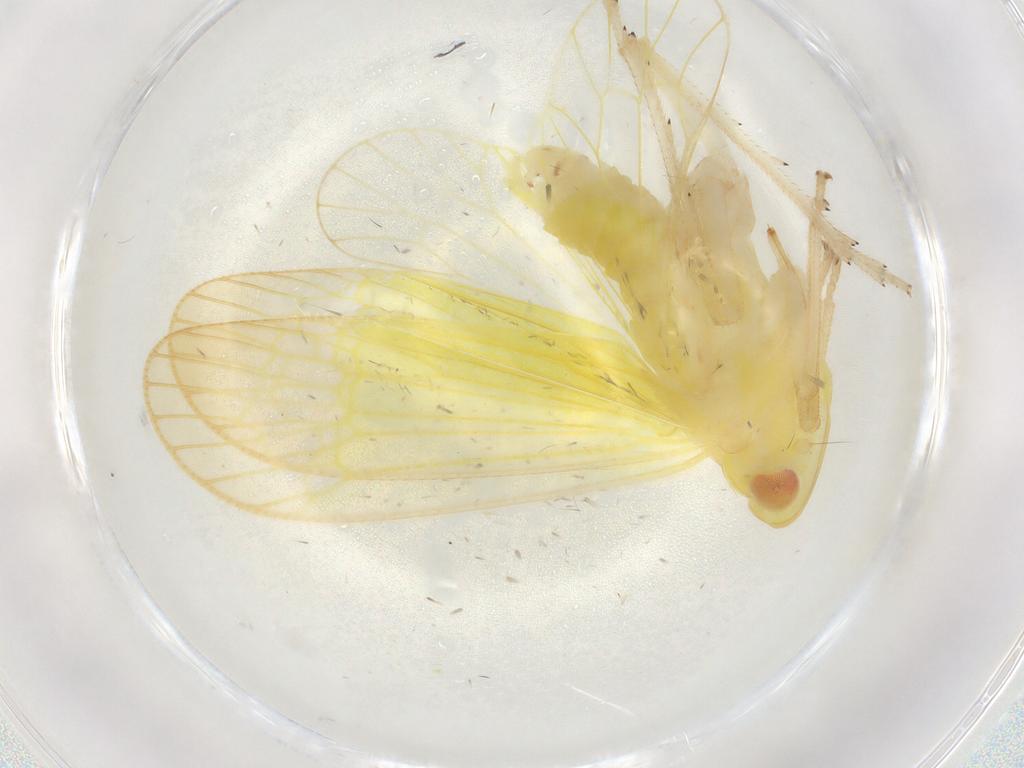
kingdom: Animalia
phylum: Arthropoda
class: Insecta
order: Hemiptera
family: Tropiduchidae
